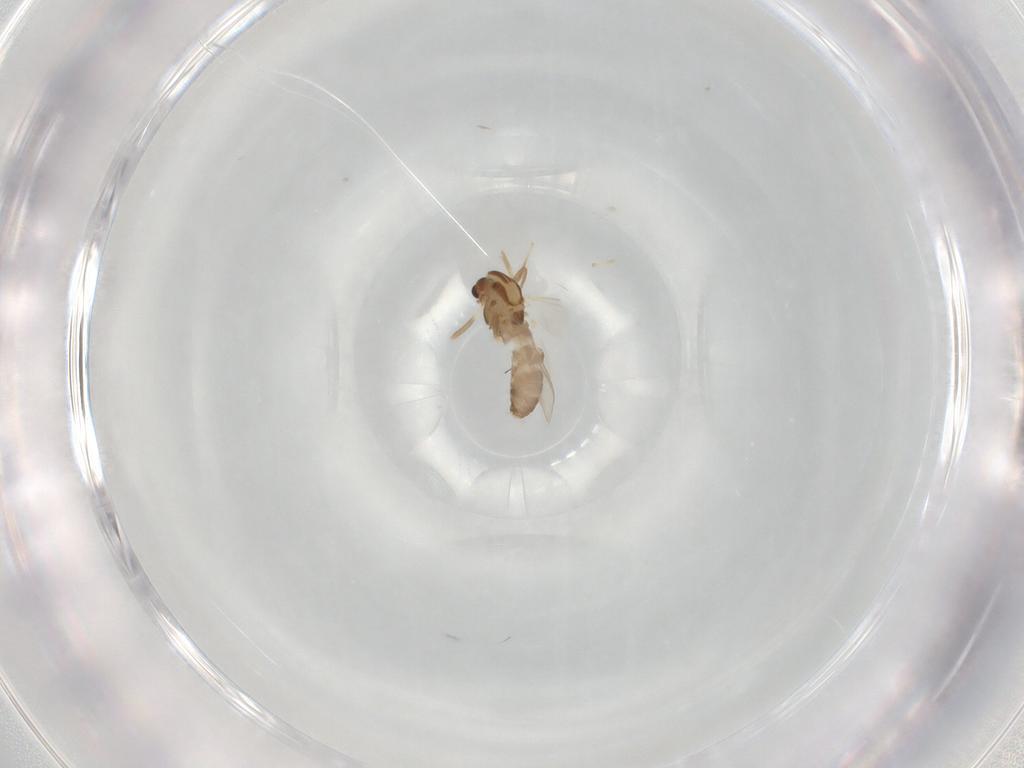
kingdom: Animalia
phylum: Arthropoda
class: Insecta
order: Diptera
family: Chironomidae
